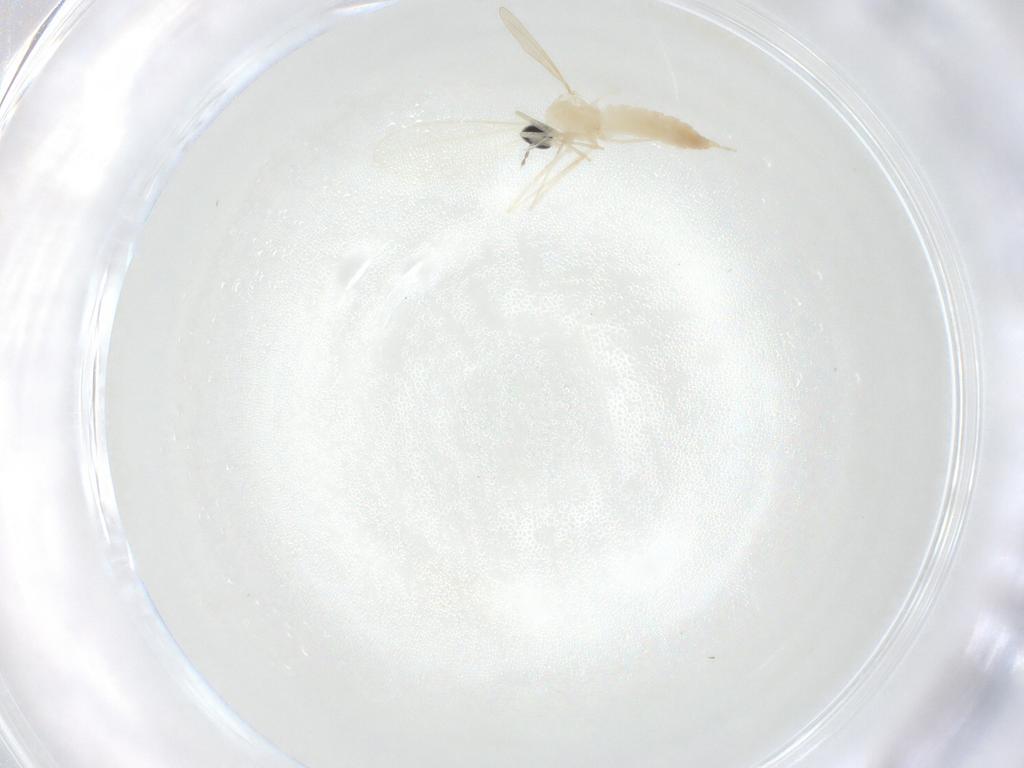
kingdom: Animalia
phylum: Arthropoda
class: Insecta
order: Diptera
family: Cecidomyiidae
